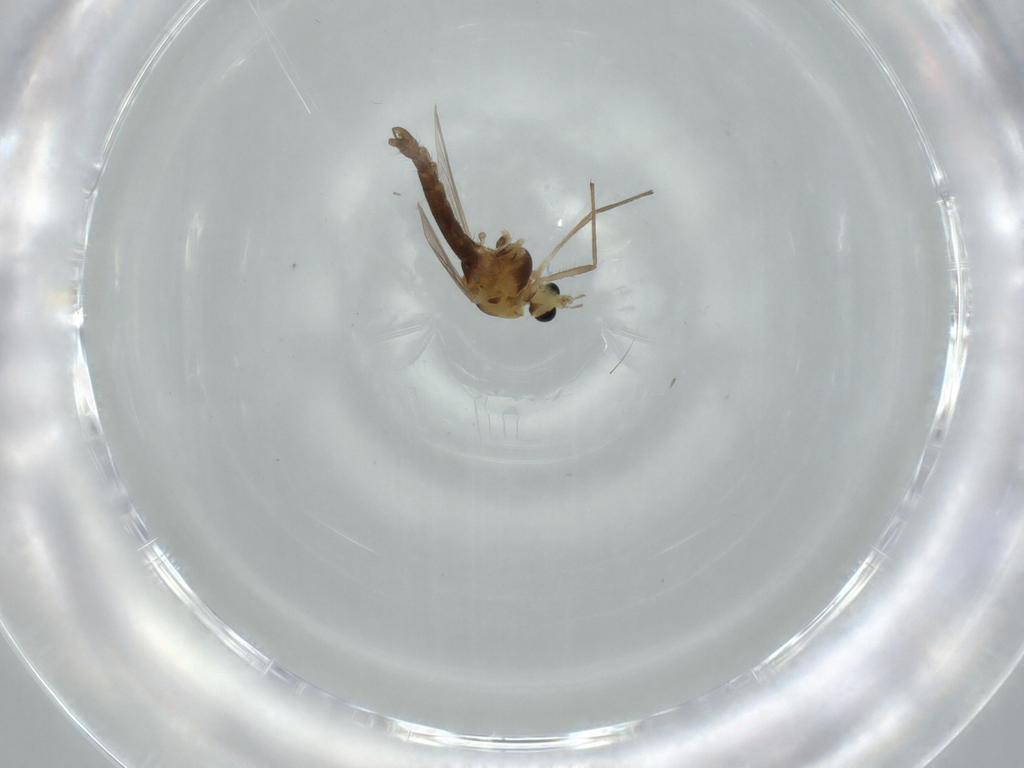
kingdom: Animalia
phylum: Arthropoda
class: Insecta
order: Diptera
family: Chironomidae
